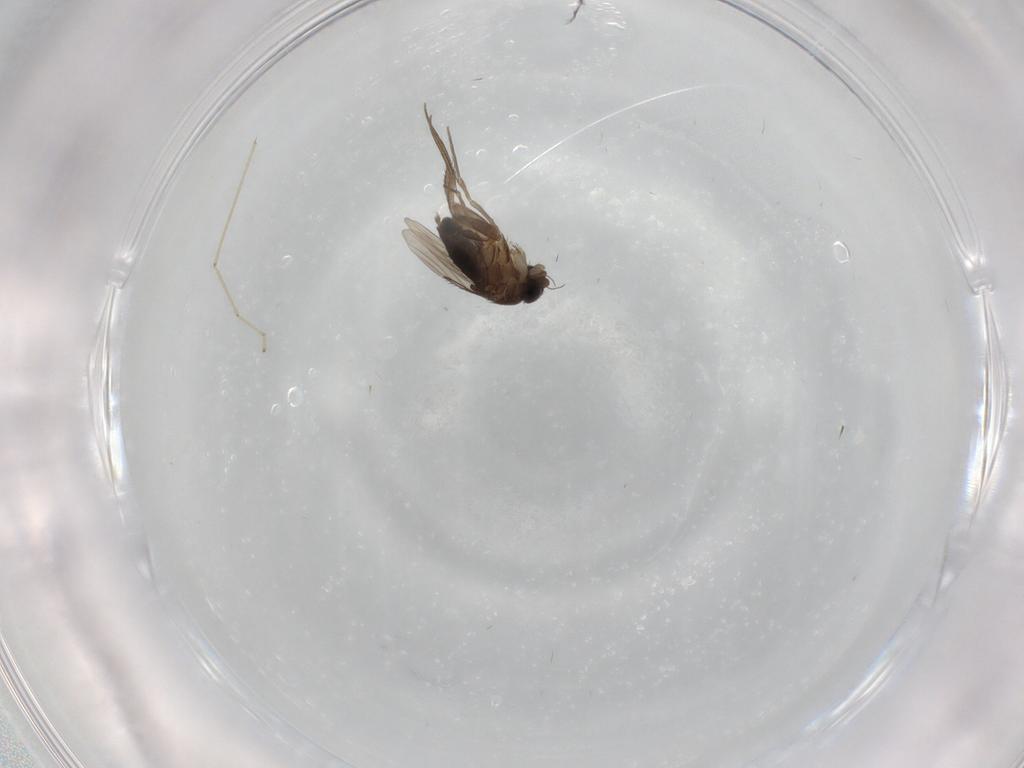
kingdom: Animalia
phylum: Arthropoda
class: Insecta
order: Diptera
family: Phoridae
